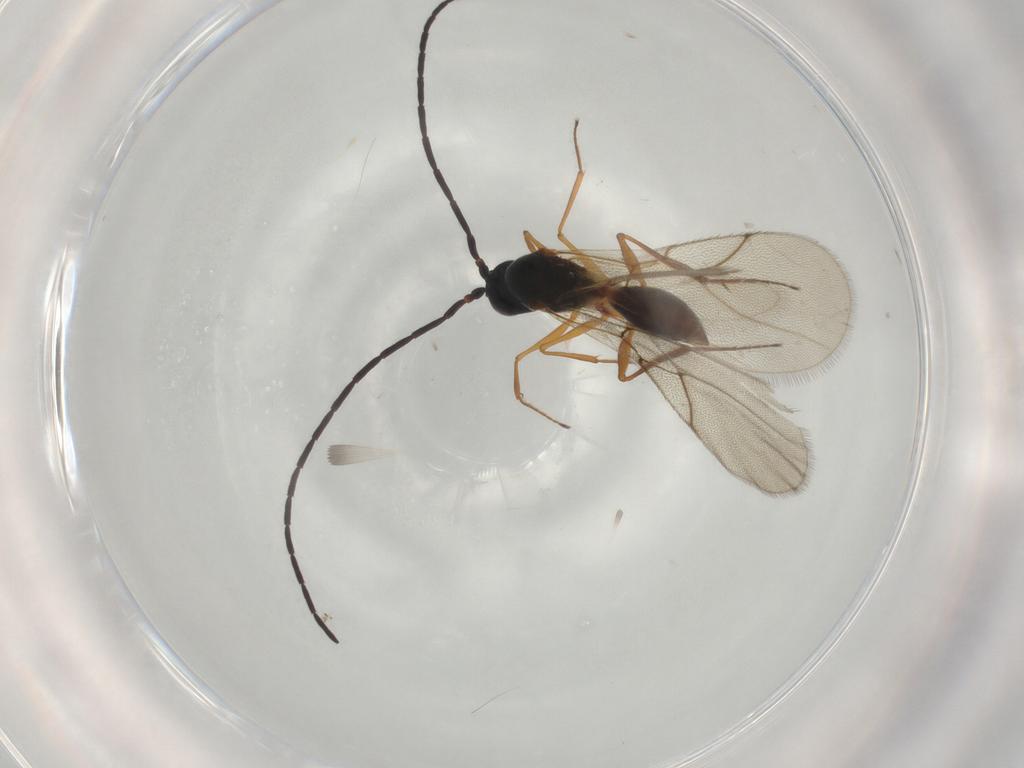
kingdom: Animalia
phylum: Arthropoda
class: Insecta
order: Hymenoptera
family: Figitidae
